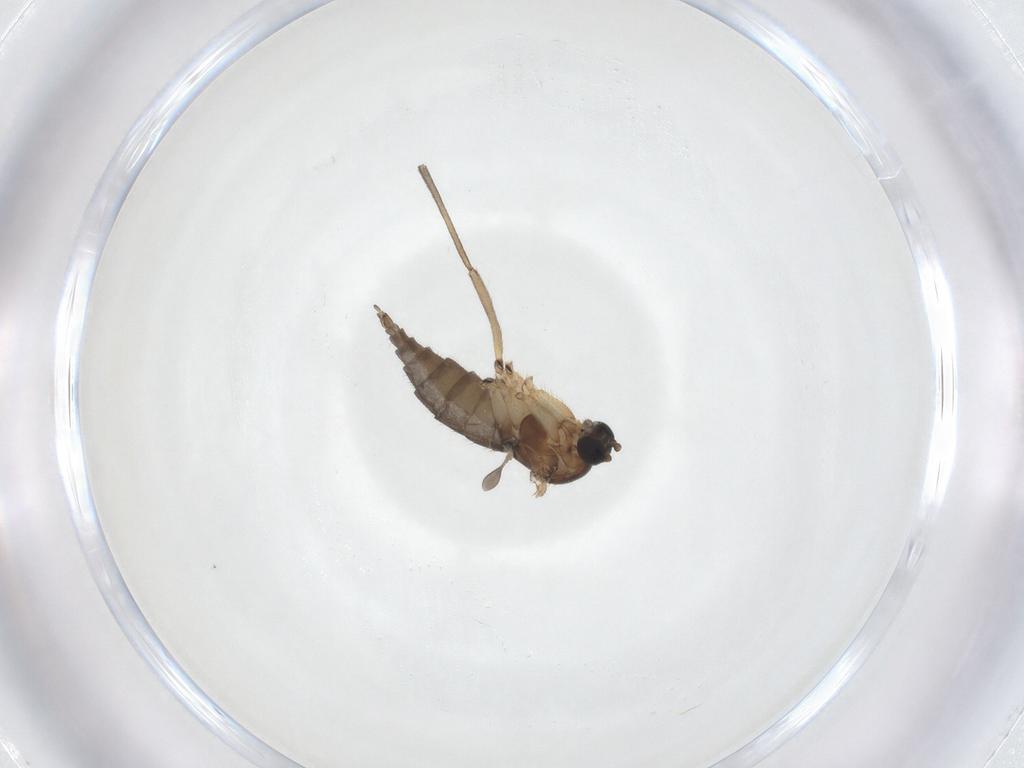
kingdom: Animalia
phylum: Arthropoda
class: Insecta
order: Diptera
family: Sciaridae
